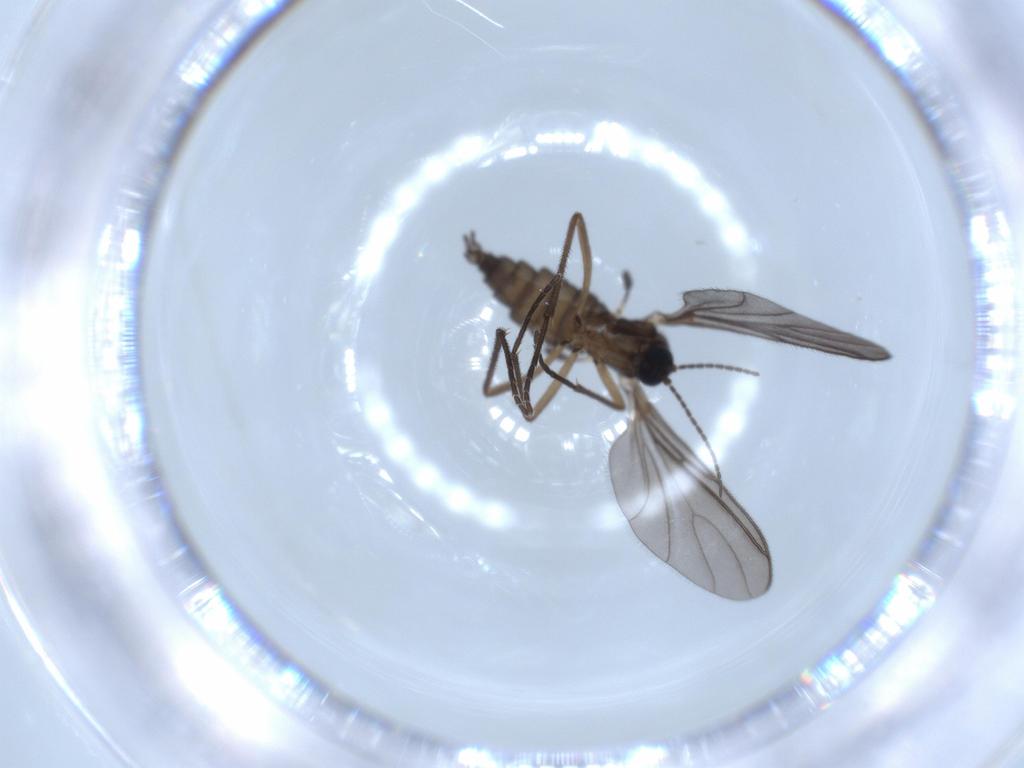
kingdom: Animalia
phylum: Arthropoda
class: Insecta
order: Diptera
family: Sciaridae
